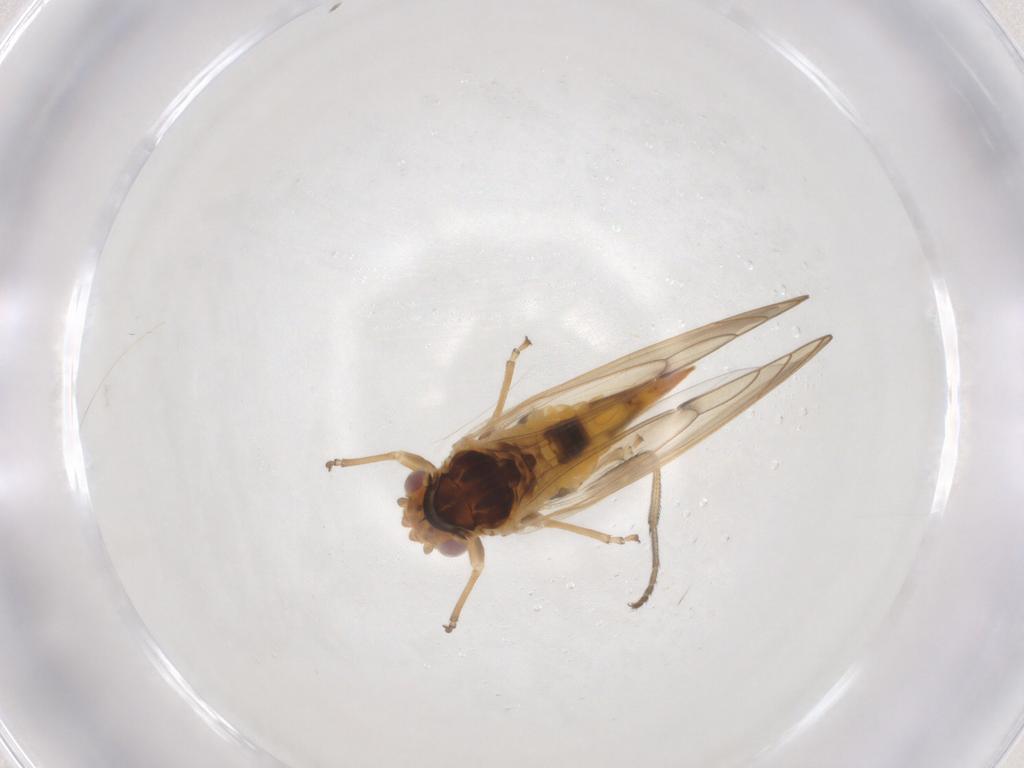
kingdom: Animalia
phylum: Arthropoda
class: Insecta
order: Hemiptera
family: Psylloidea_incertae_sedis
